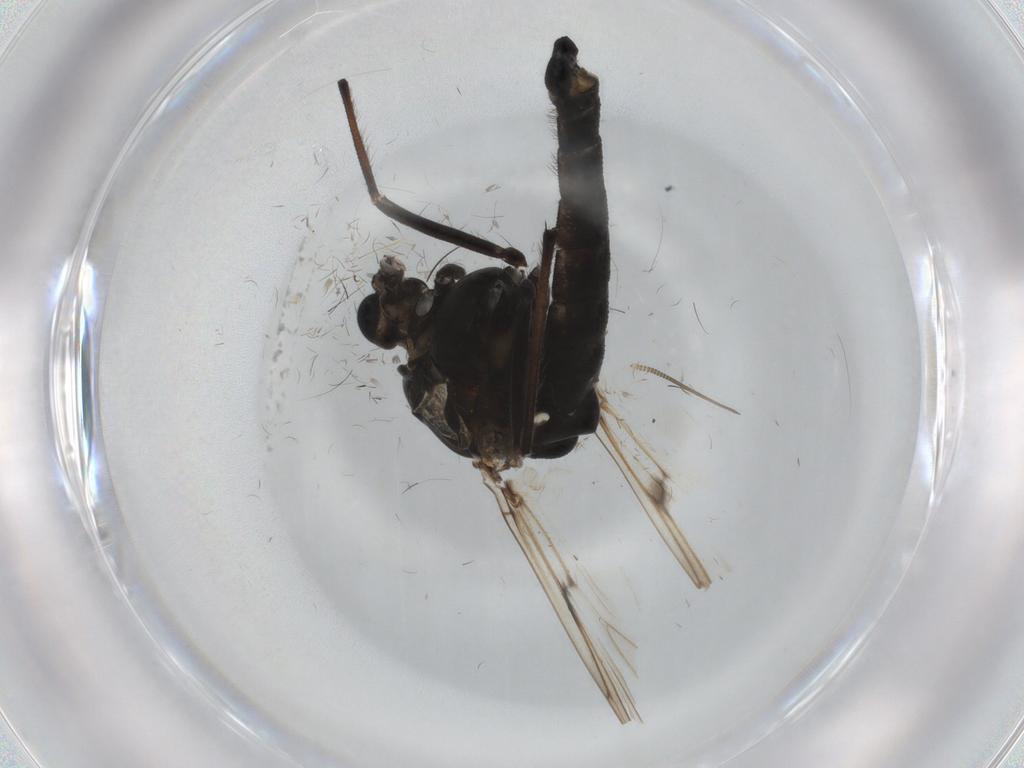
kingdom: Animalia
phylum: Arthropoda
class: Insecta
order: Diptera
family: Chironomidae
